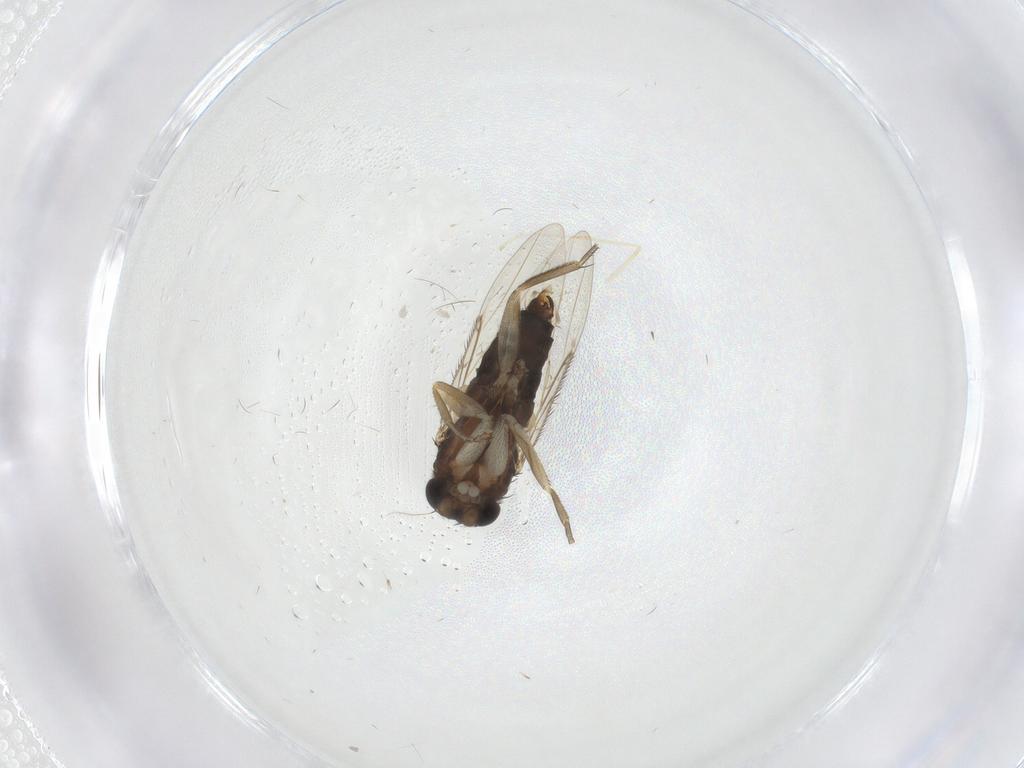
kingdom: Animalia
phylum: Arthropoda
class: Insecta
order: Diptera
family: Cecidomyiidae
